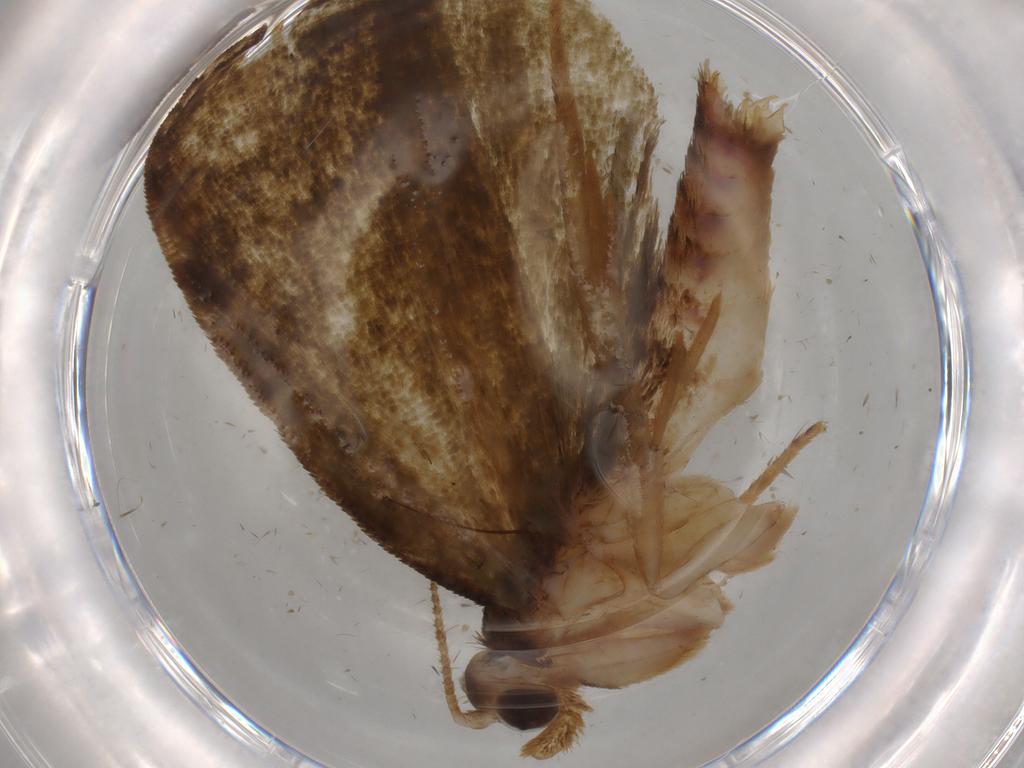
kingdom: Animalia
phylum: Arthropoda
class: Insecta
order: Lepidoptera
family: Geometridae
